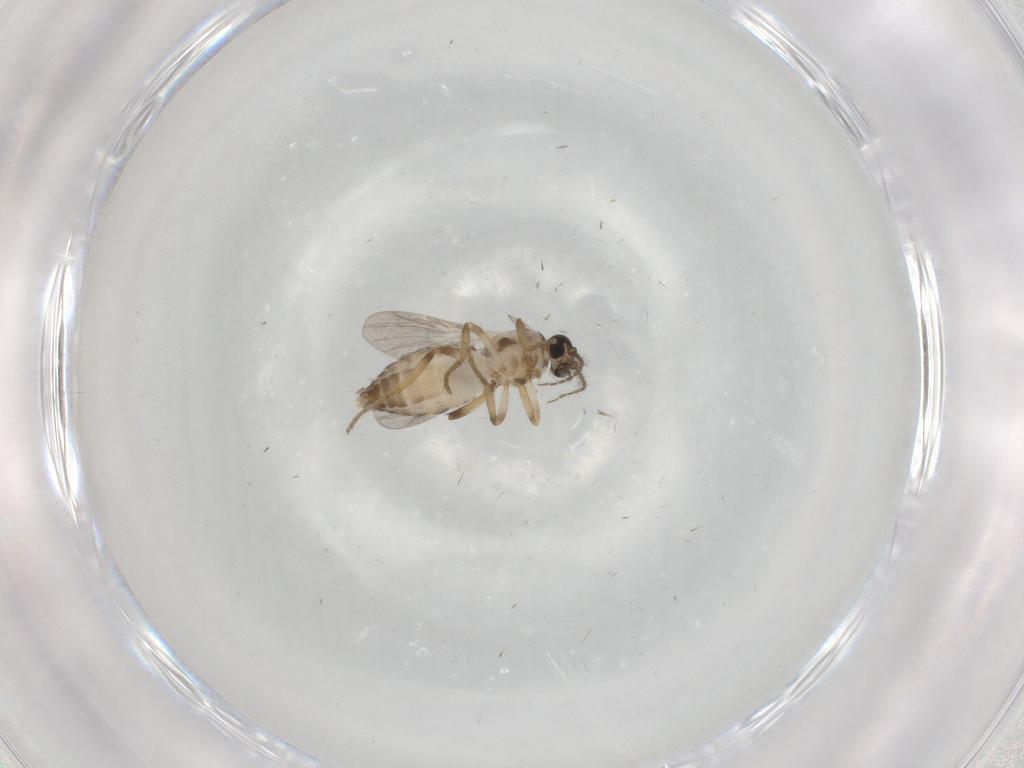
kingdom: Animalia
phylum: Arthropoda
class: Insecta
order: Diptera
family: Ceratopogonidae
